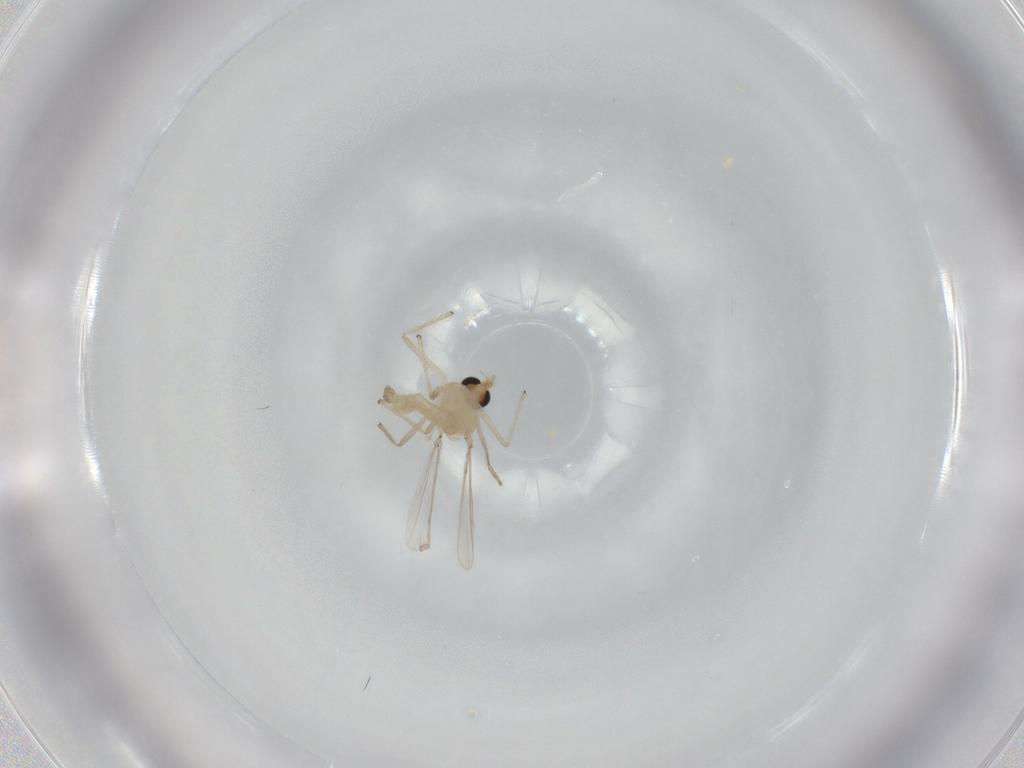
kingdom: Animalia
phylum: Arthropoda
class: Insecta
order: Diptera
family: Chironomidae
